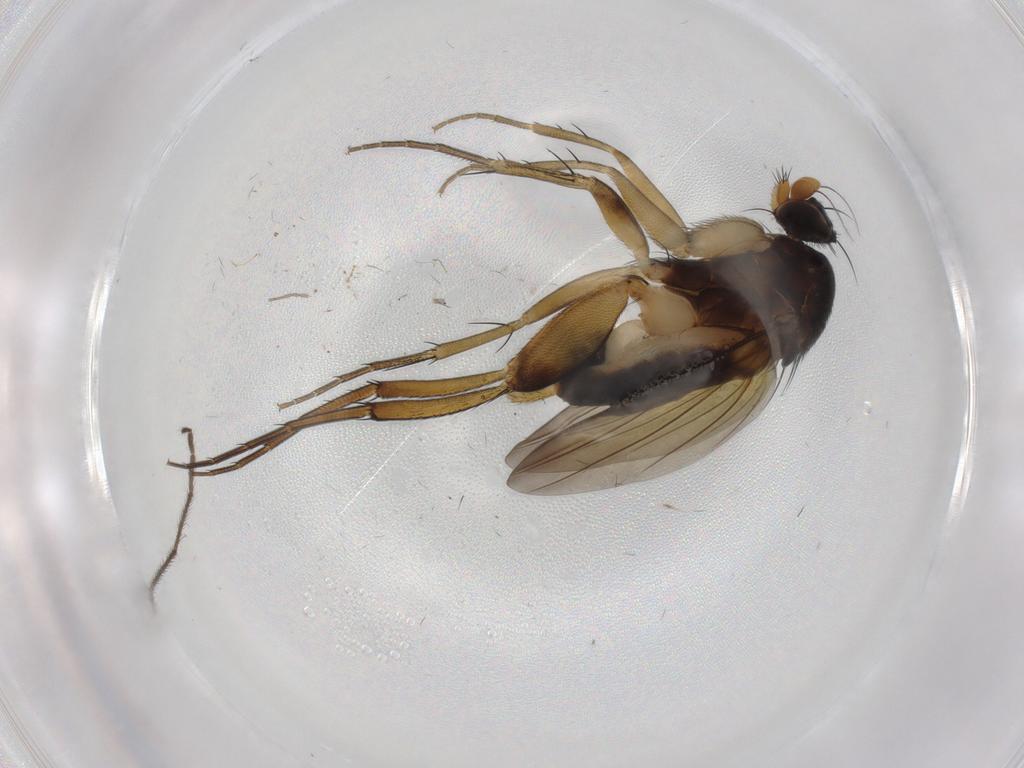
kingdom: Animalia
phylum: Arthropoda
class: Insecta
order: Diptera
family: Phoridae
